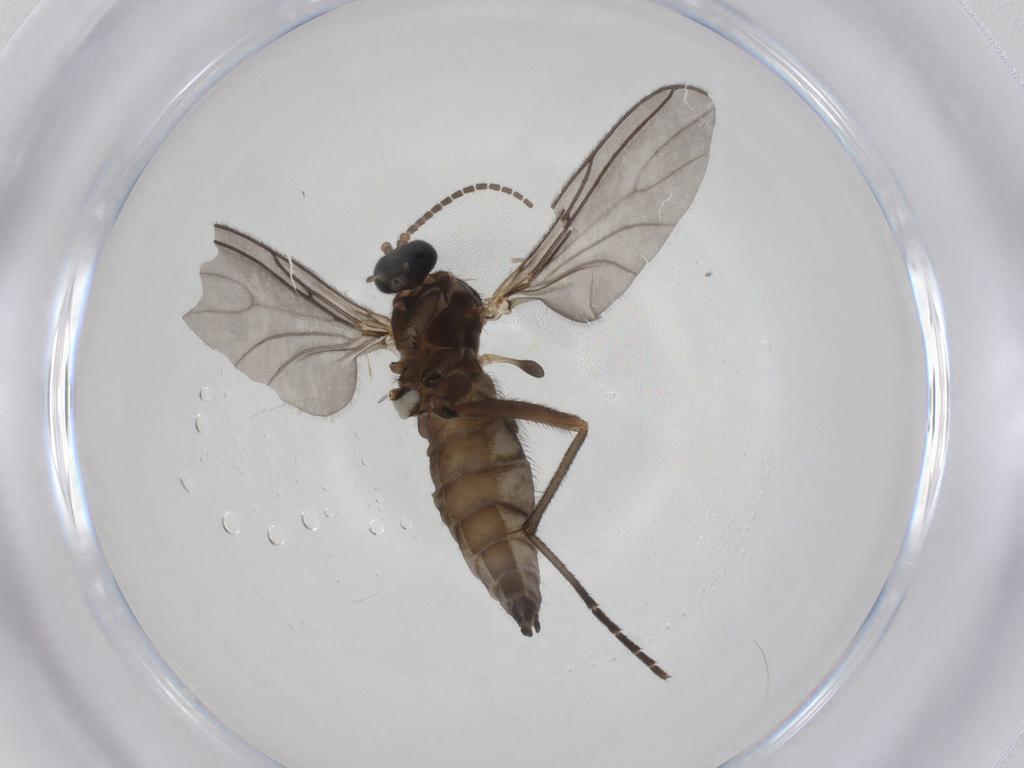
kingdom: Animalia
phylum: Arthropoda
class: Insecta
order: Diptera
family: Sciaridae
